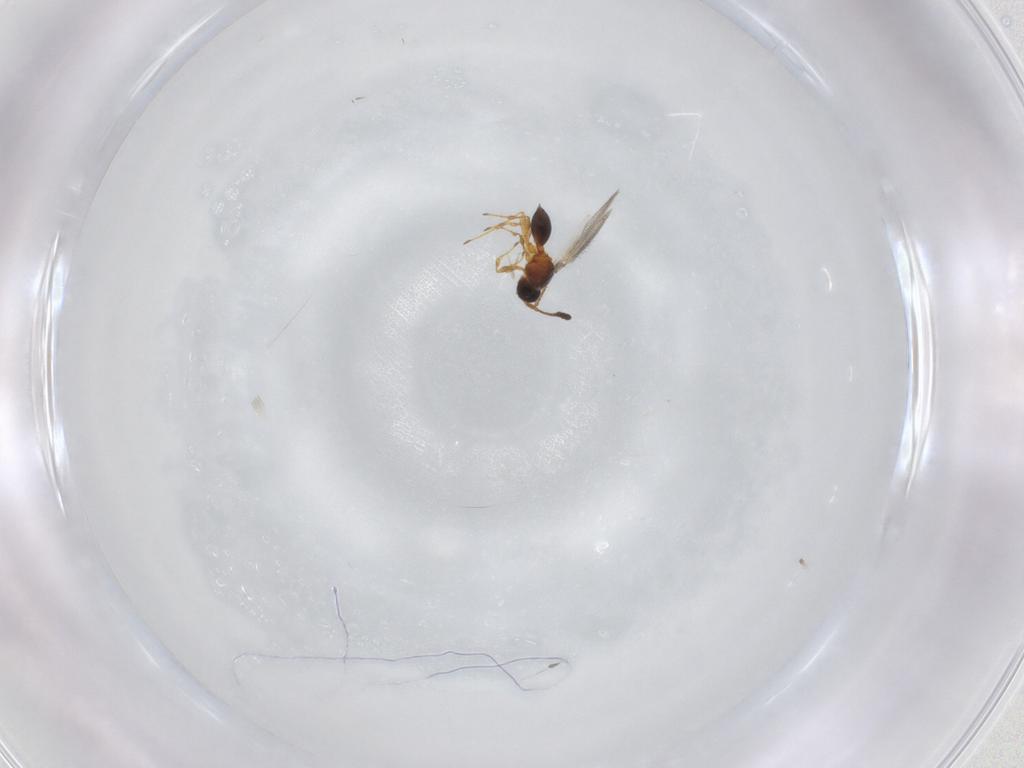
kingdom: Animalia
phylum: Arthropoda
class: Insecta
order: Hymenoptera
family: Diapriidae
